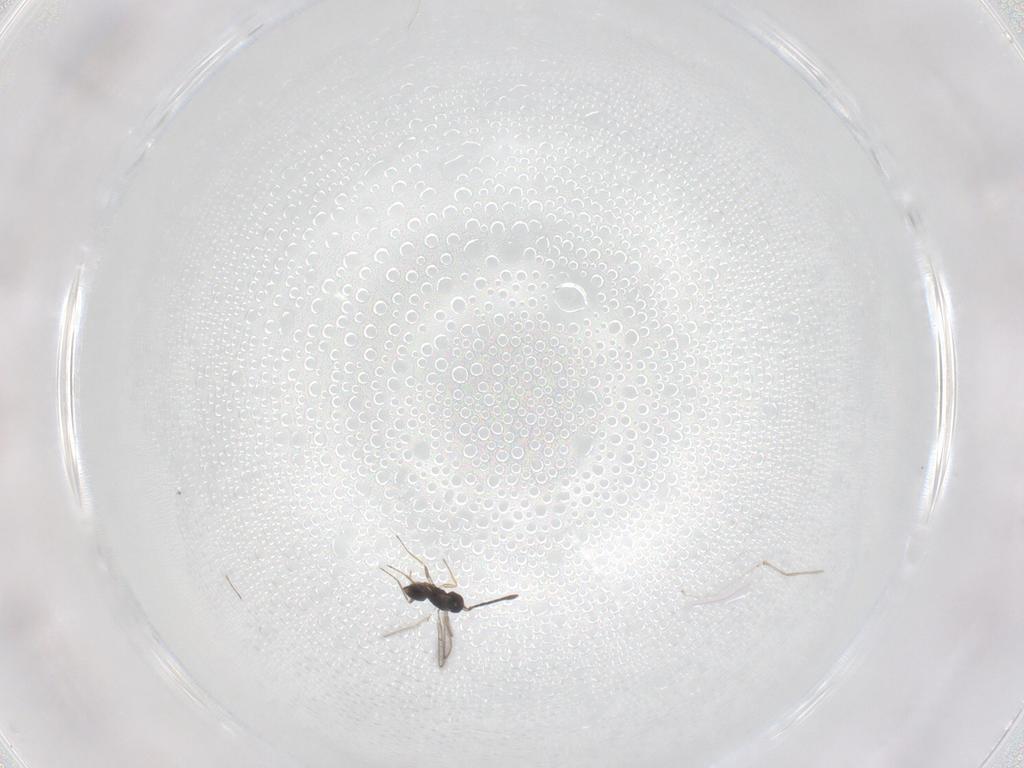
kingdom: Animalia
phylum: Arthropoda
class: Insecta
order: Hymenoptera
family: Mymaridae
